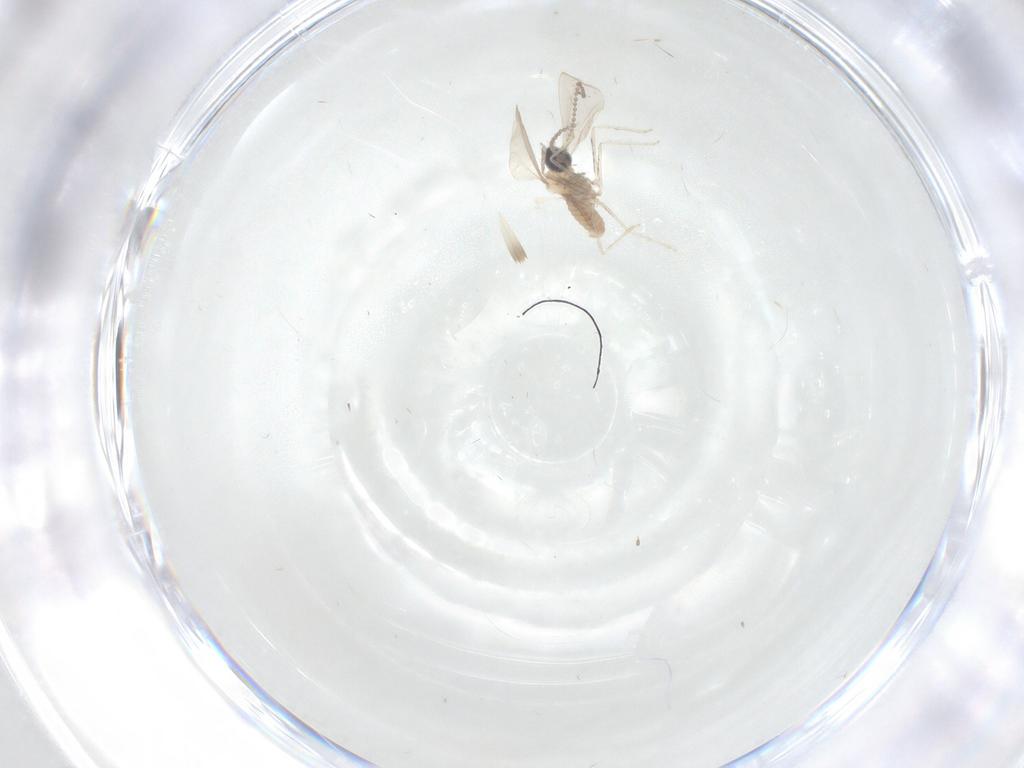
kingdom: Animalia
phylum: Arthropoda
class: Insecta
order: Diptera
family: Cecidomyiidae
